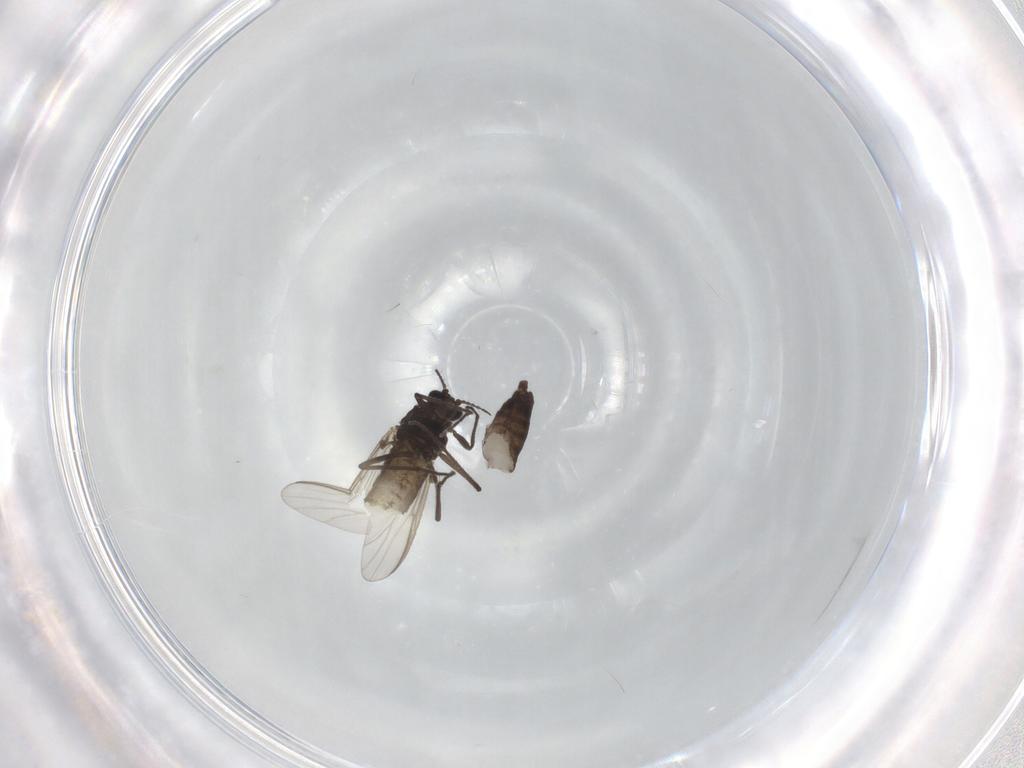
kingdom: Animalia
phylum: Arthropoda
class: Insecta
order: Diptera
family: Chironomidae
